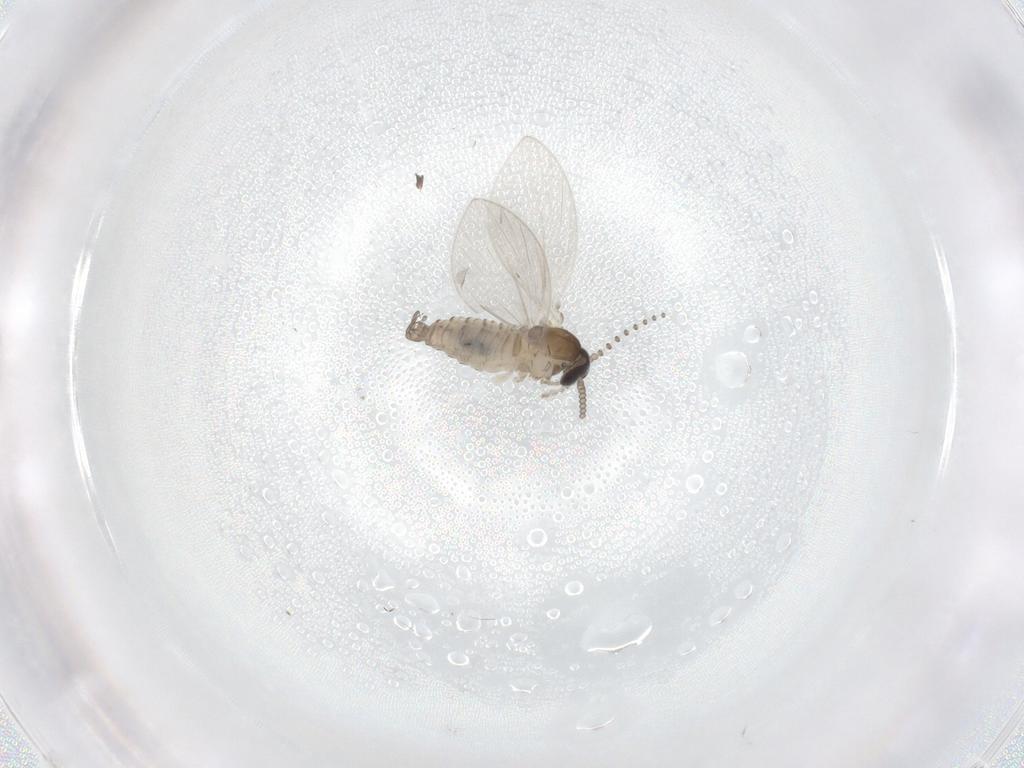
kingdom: Animalia
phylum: Arthropoda
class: Insecta
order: Diptera
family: Psychodidae
